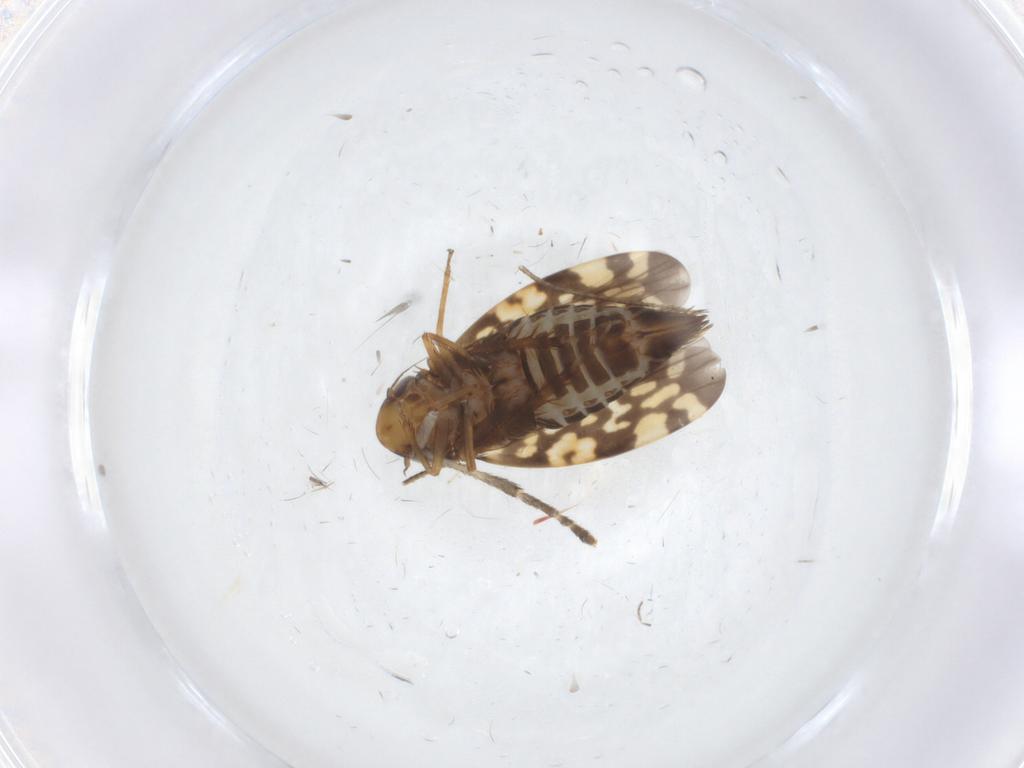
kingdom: Animalia
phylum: Arthropoda
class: Insecta
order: Hemiptera
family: Cicadellidae
